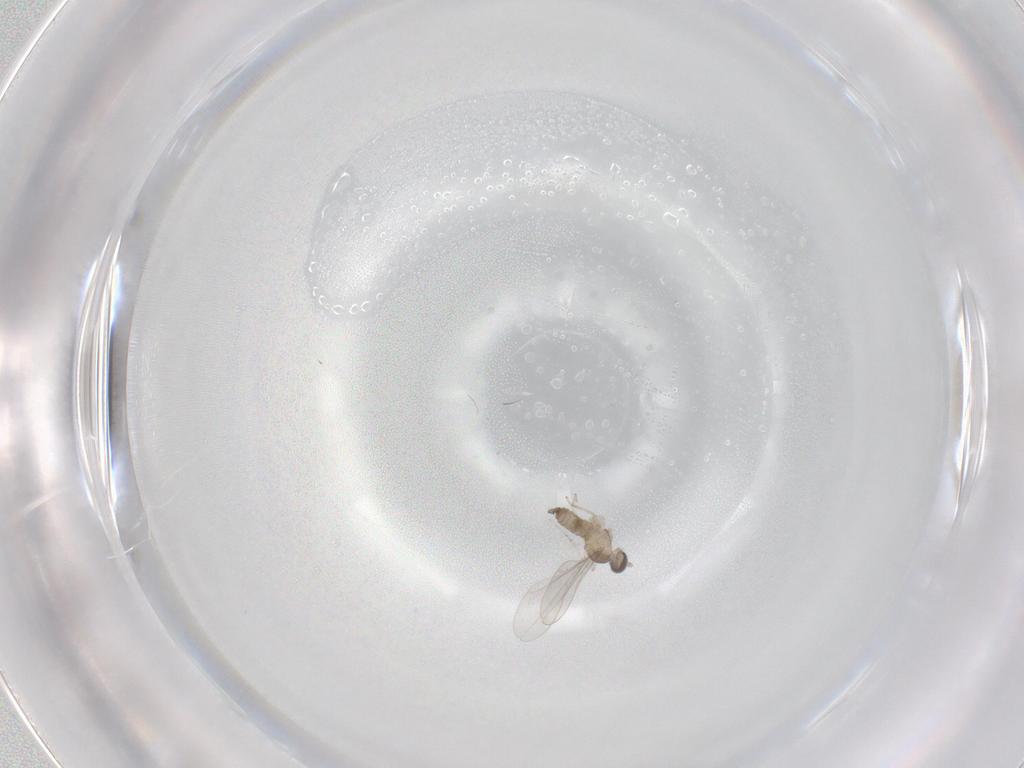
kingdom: Animalia
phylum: Arthropoda
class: Insecta
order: Diptera
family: Cecidomyiidae
